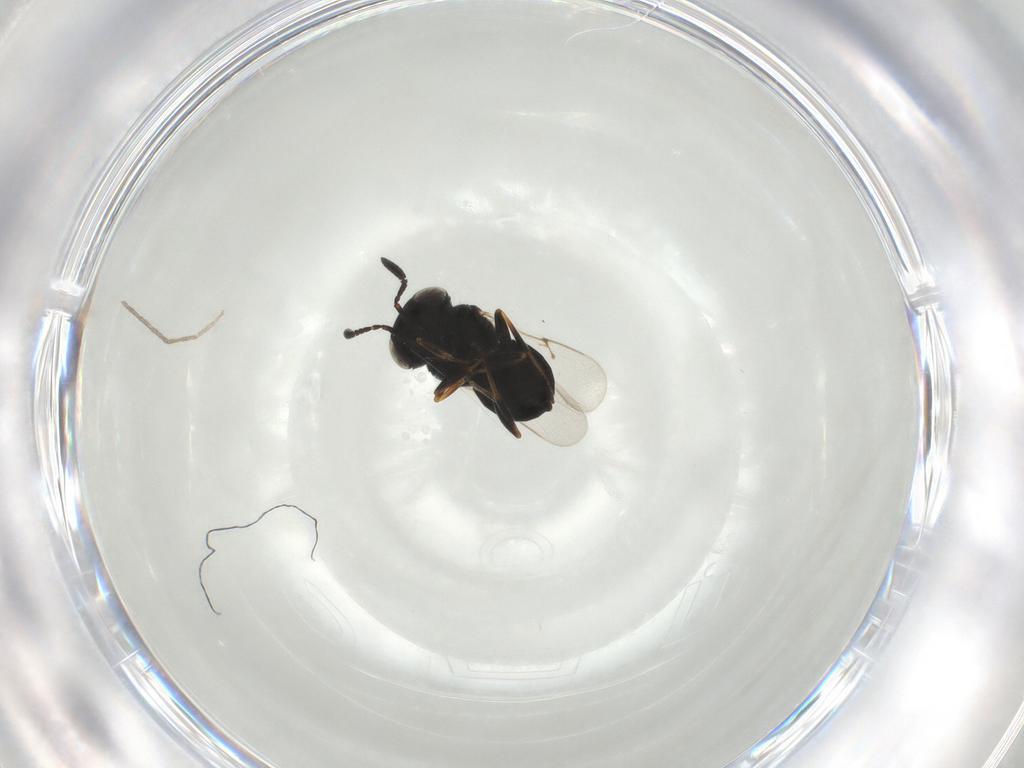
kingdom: Animalia
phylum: Arthropoda
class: Insecta
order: Hymenoptera
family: Scelionidae
